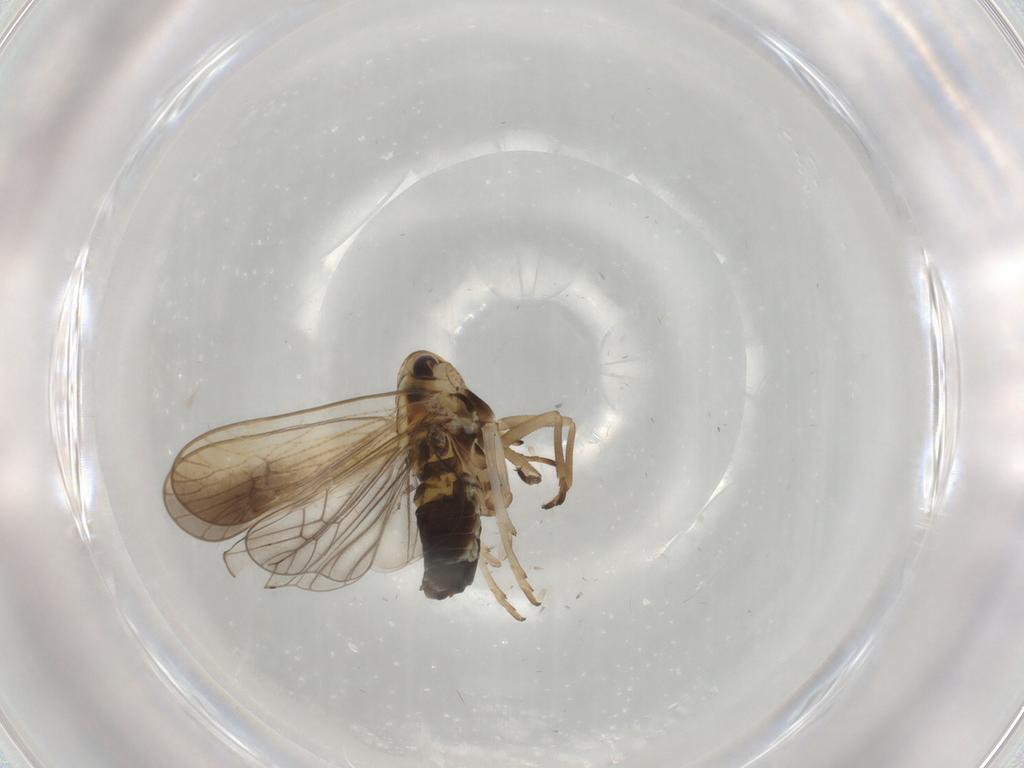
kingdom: Animalia
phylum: Arthropoda
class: Insecta
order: Hemiptera
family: Delphacidae
